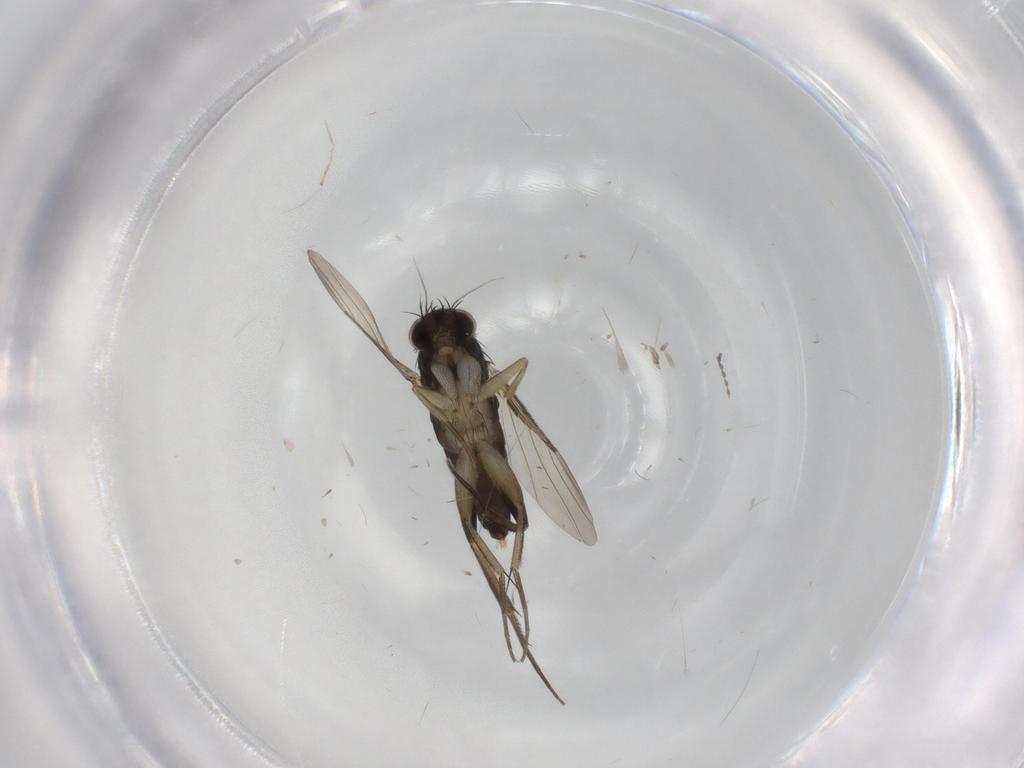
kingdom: Animalia
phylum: Arthropoda
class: Insecta
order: Diptera
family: Phoridae
